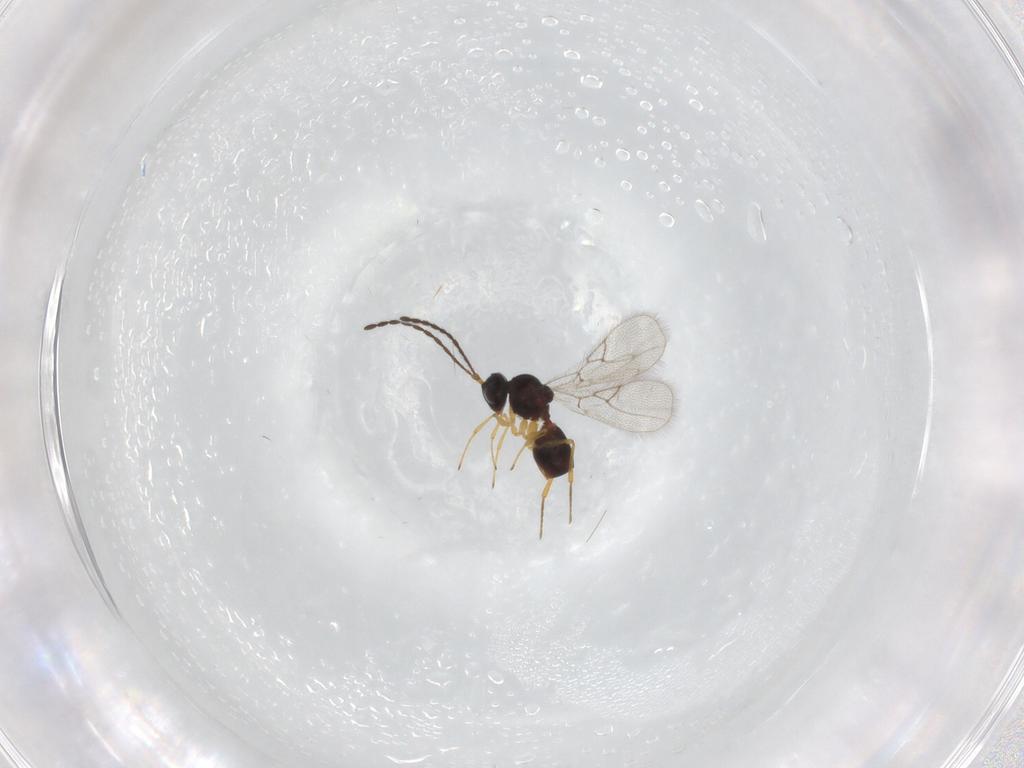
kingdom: Animalia
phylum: Arthropoda
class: Insecta
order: Hymenoptera
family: Figitidae
